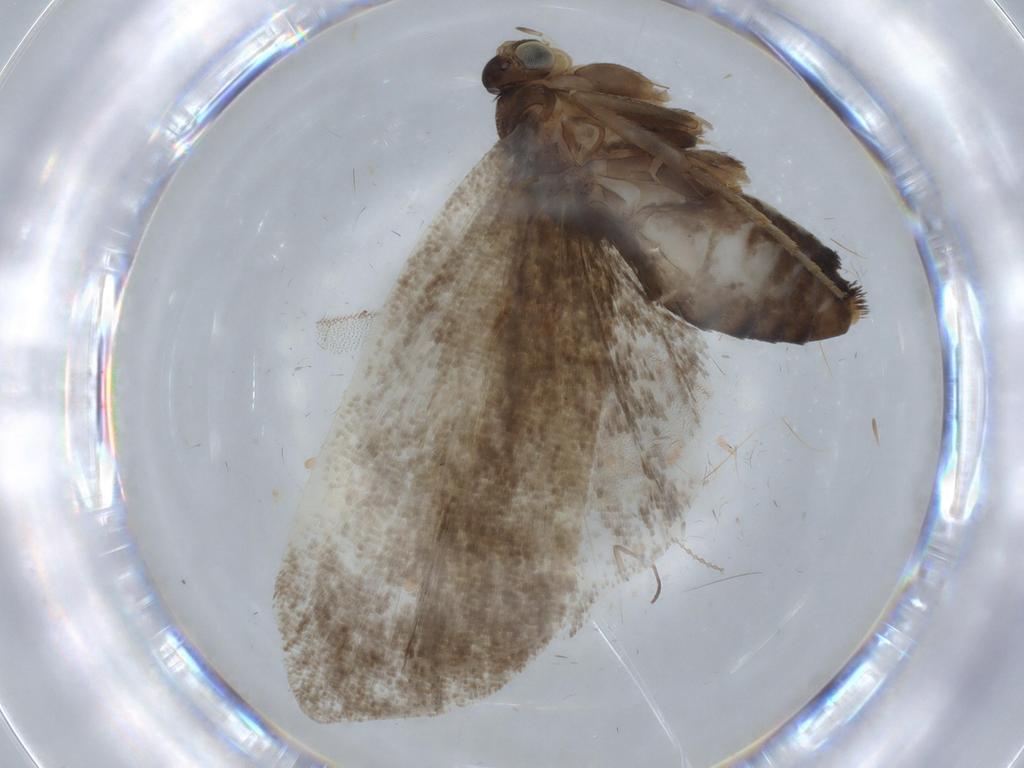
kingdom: Animalia
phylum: Arthropoda
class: Insecta
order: Lepidoptera
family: Choreutidae
